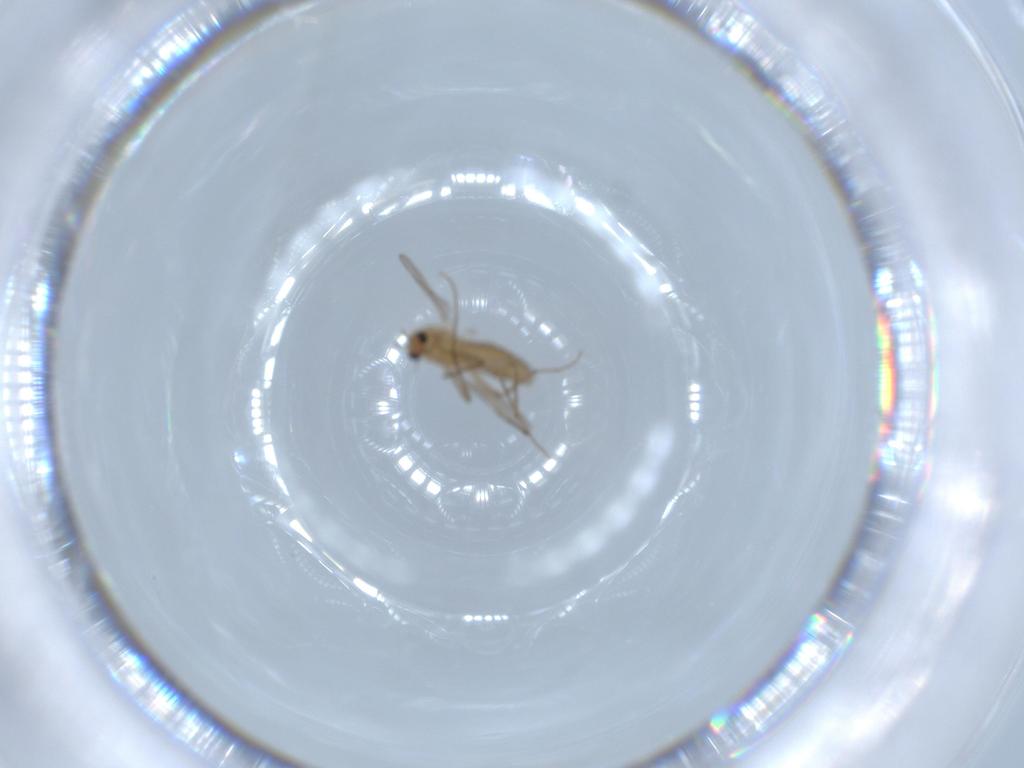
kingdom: Animalia
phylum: Arthropoda
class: Insecta
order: Diptera
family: Chironomidae
